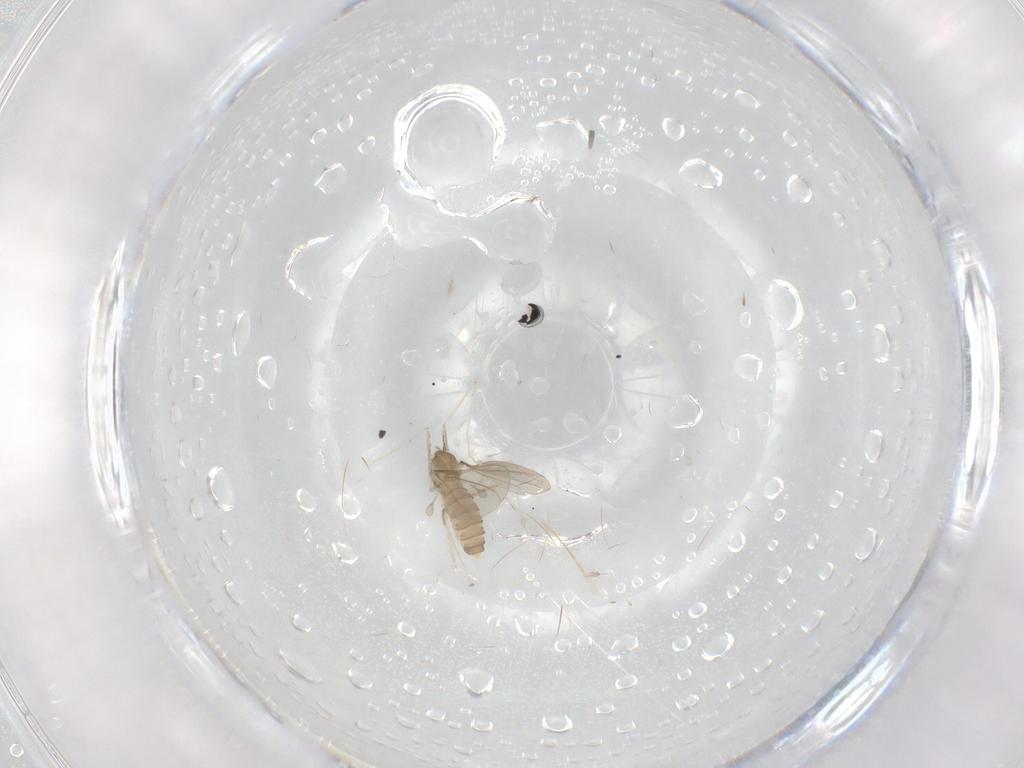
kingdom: Animalia
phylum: Arthropoda
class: Insecta
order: Diptera
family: Cecidomyiidae
